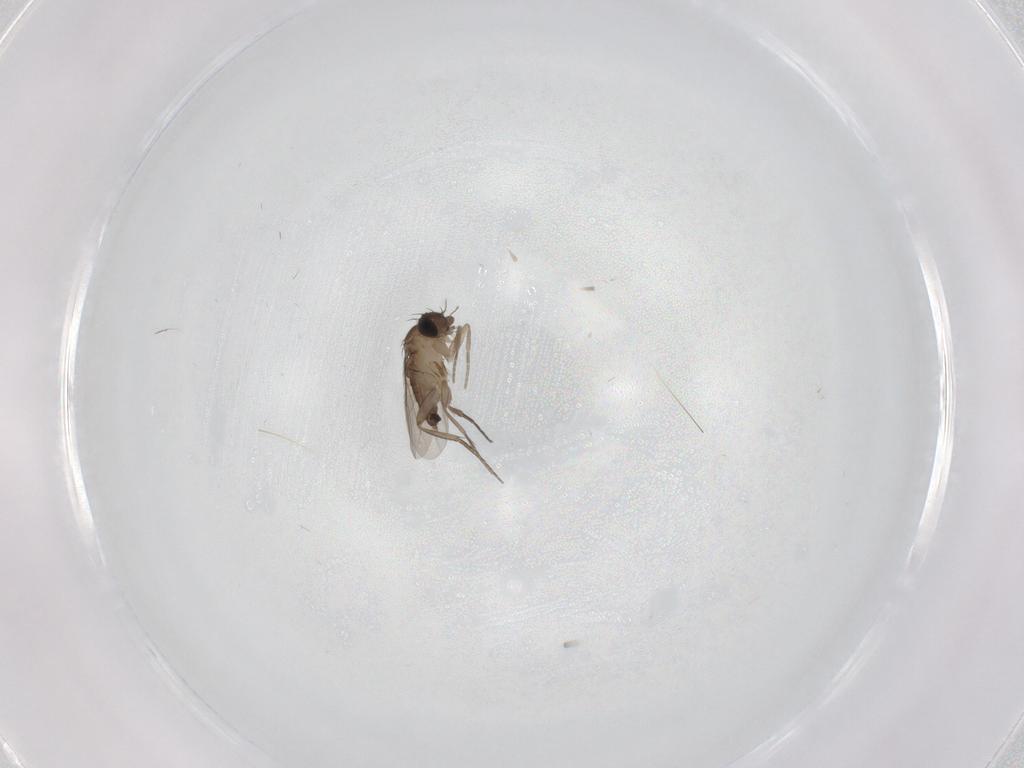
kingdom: Animalia
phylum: Arthropoda
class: Insecta
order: Diptera
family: Phoridae
